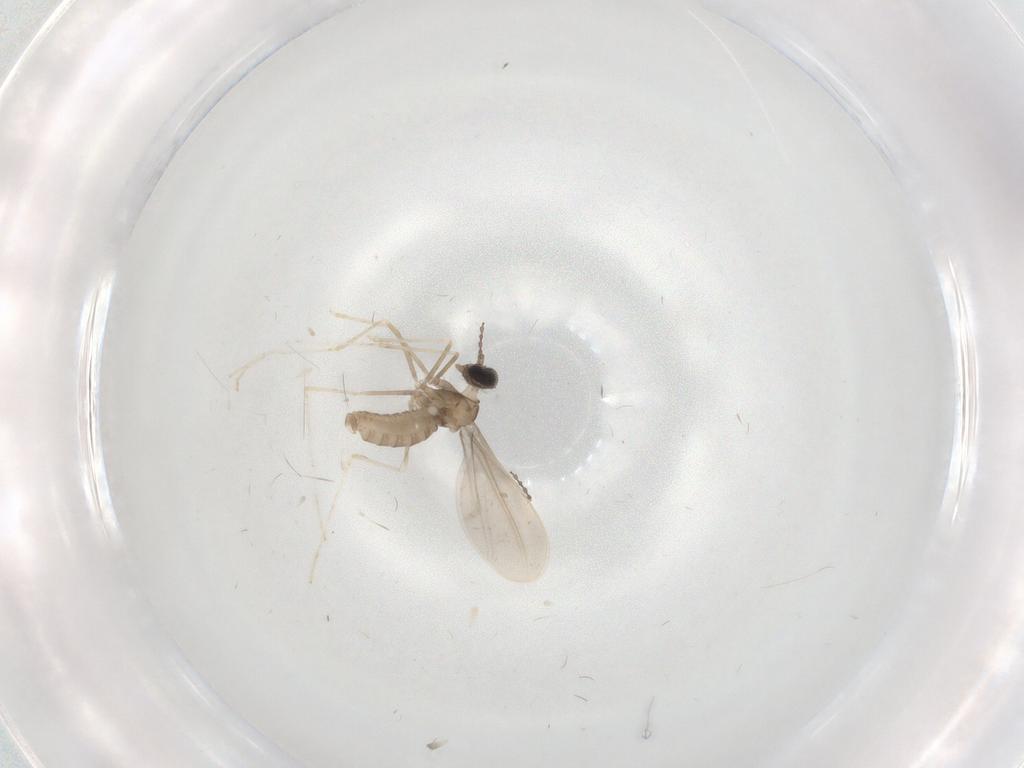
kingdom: Animalia
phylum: Arthropoda
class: Insecta
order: Diptera
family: Cecidomyiidae
